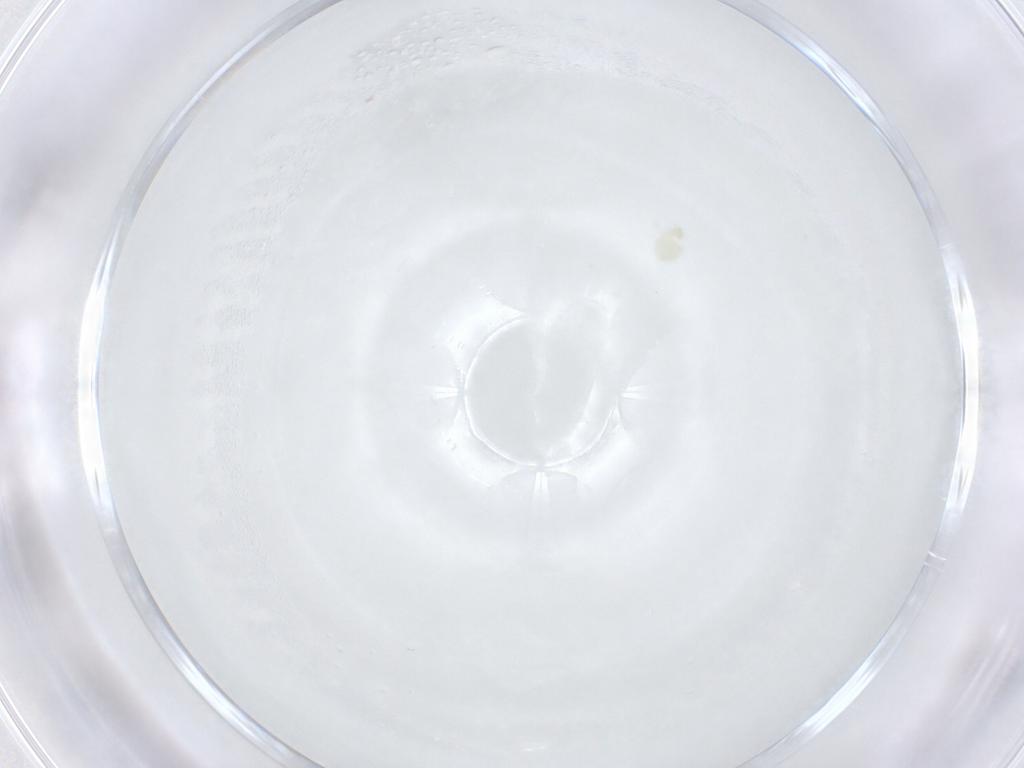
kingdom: Animalia
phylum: Arthropoda
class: Insecta
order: Diptera
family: Chironomidae
